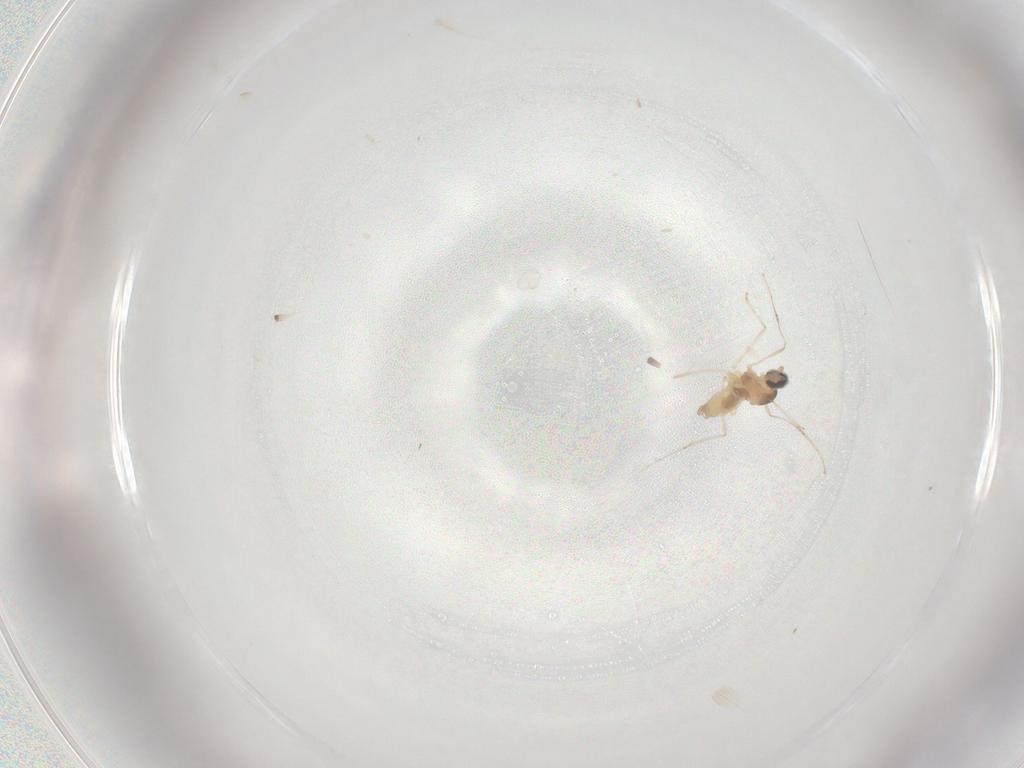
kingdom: Animalia
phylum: Arthropoda
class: Insecta
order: Diptera
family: Cecidomyiidae
